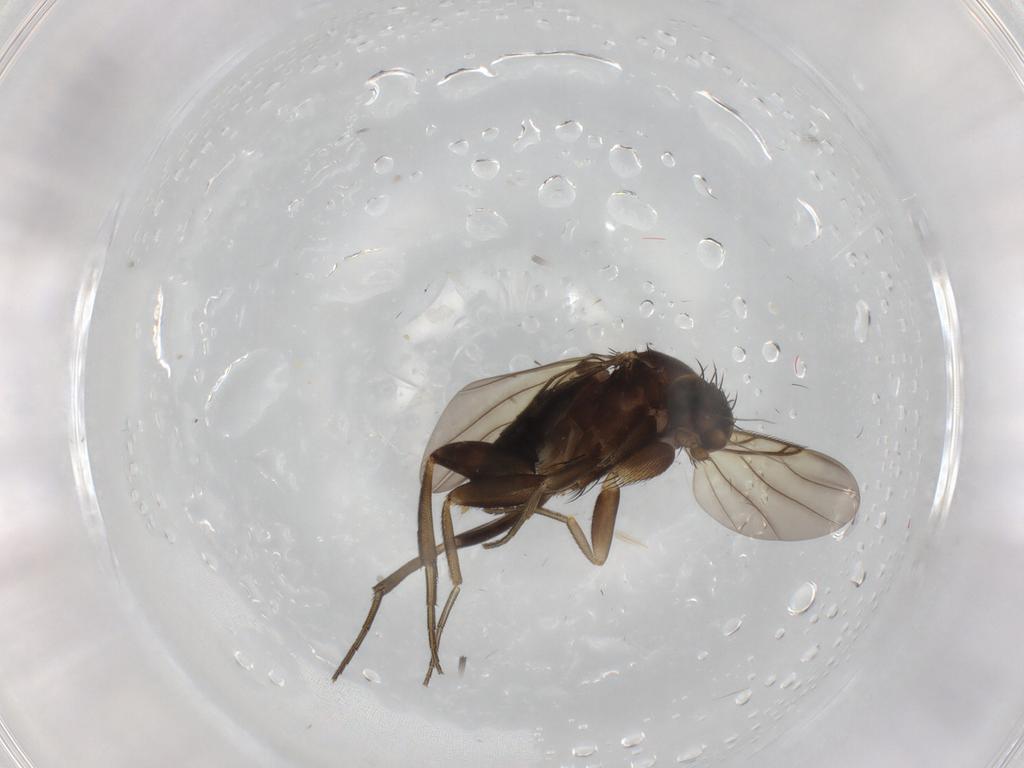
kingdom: Animalia
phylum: Arthropoda
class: Insecta
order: Diptera
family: Phoridae
